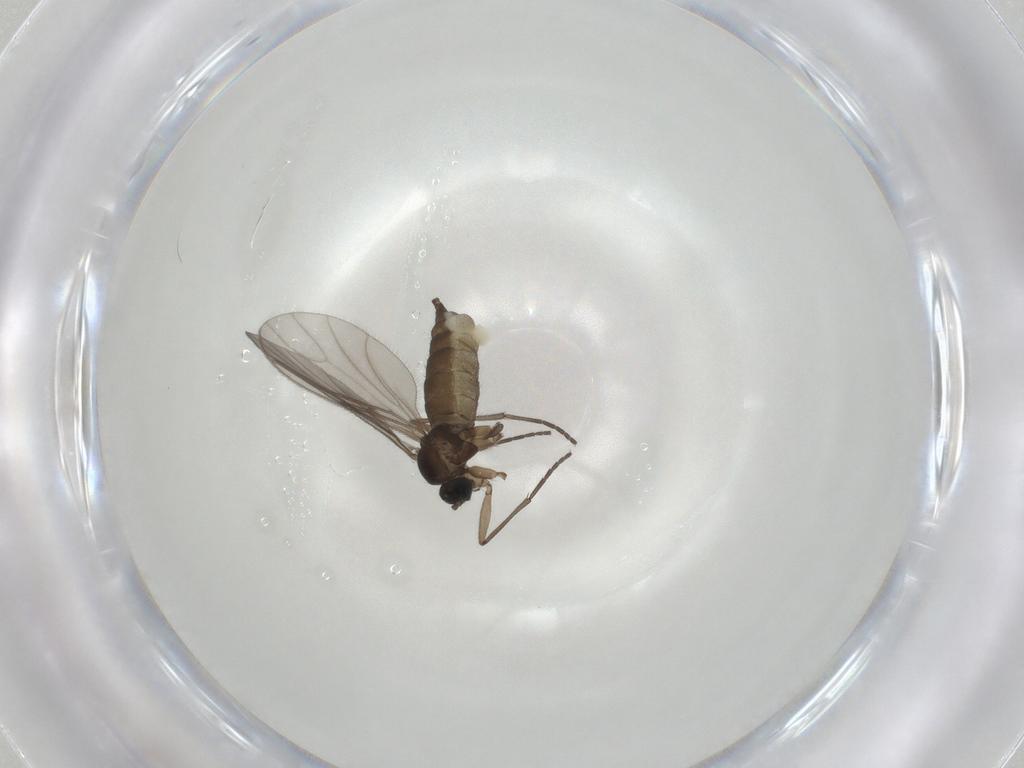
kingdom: Animalia
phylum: Arthropoda
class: Insecta
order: Diptera
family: Sciaridae
